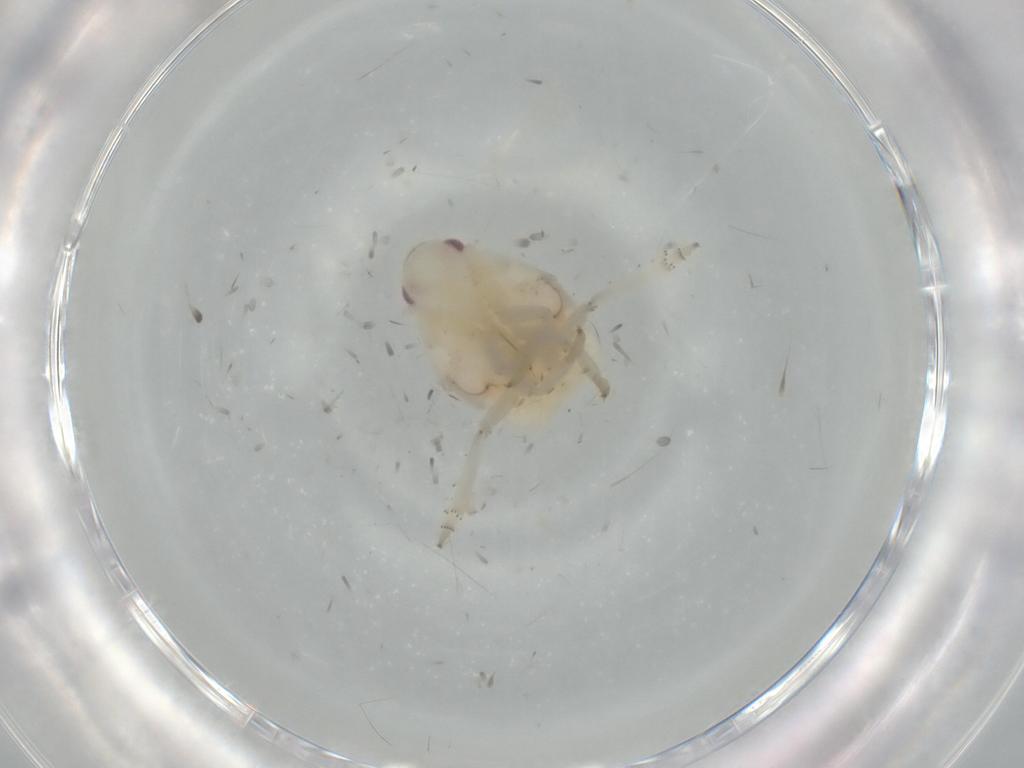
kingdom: Animalia
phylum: Arthropoda
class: Insecta
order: Hemiptera
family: Flatidae
